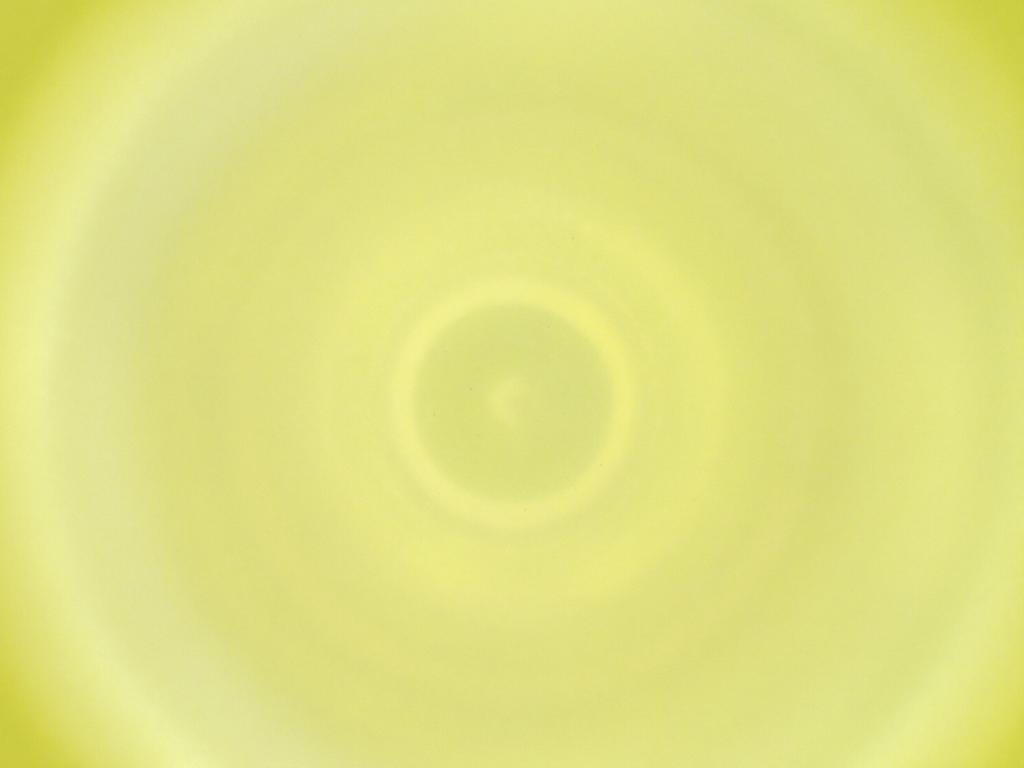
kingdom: Animalia
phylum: Arthropoda
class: Insecta
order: Diptera
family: Cecidomyiidae
